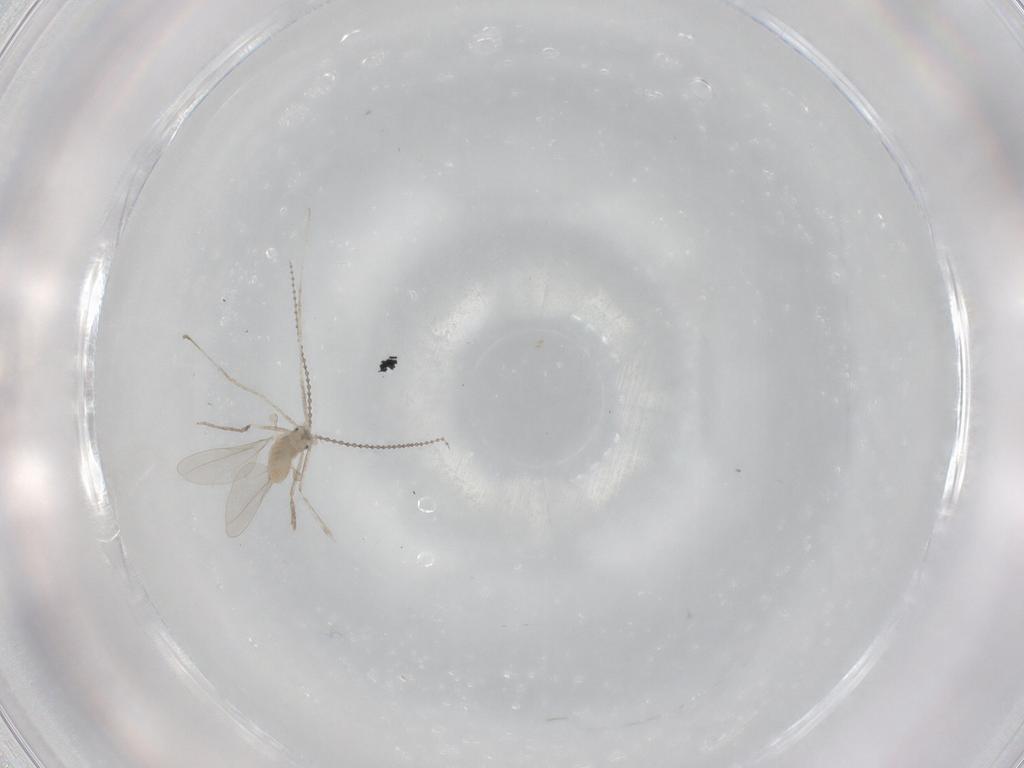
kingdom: Animalia
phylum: Arthropoda
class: Insecta
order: Diptera
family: Cecidomyiidae
